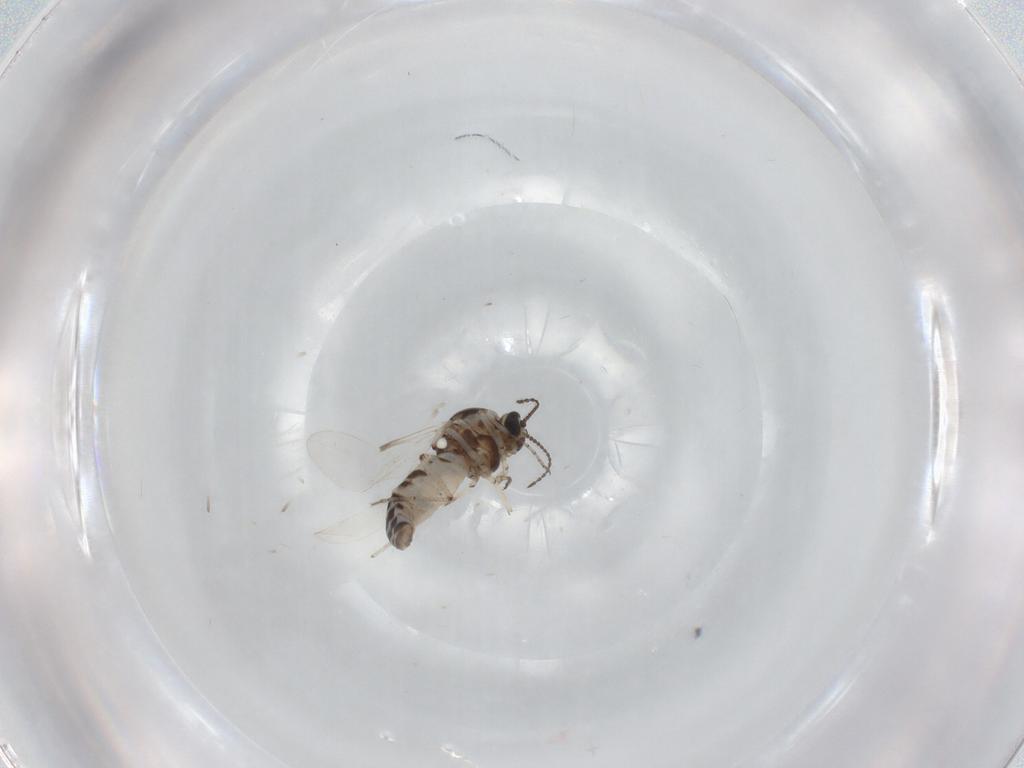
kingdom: Animalia
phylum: Arthropoda
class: Insecta
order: Diptera
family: Ceratopogonidae
